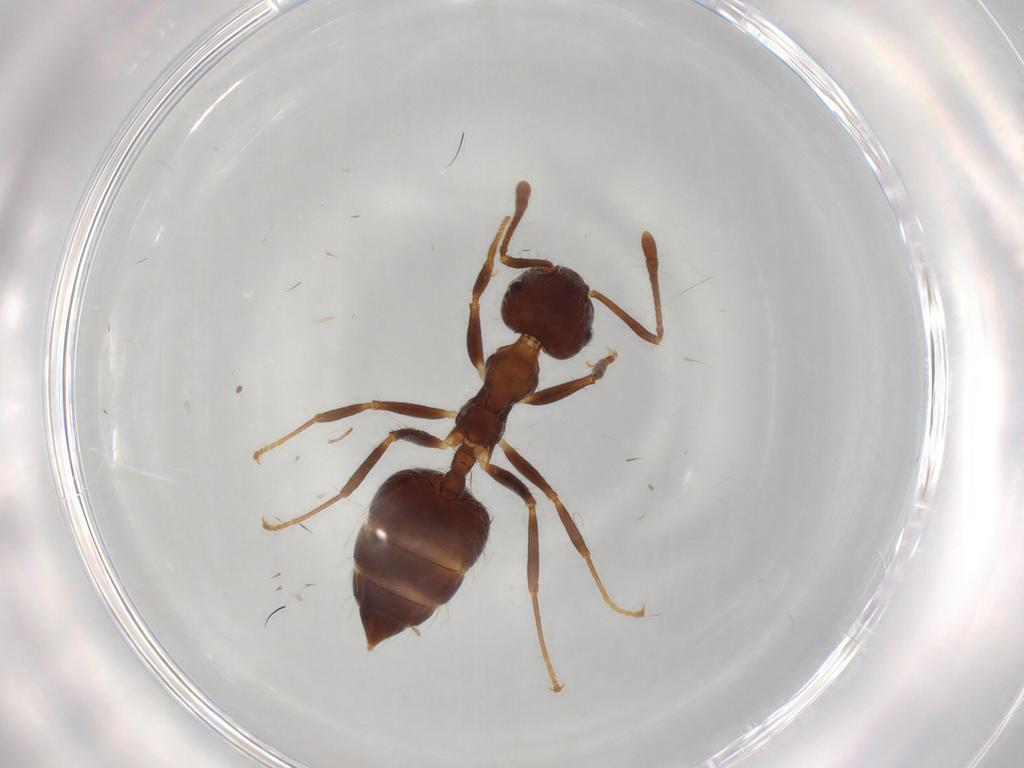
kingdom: Animalia
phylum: Arthropoda
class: Insecta
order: Hymenoptera
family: Formicidae
